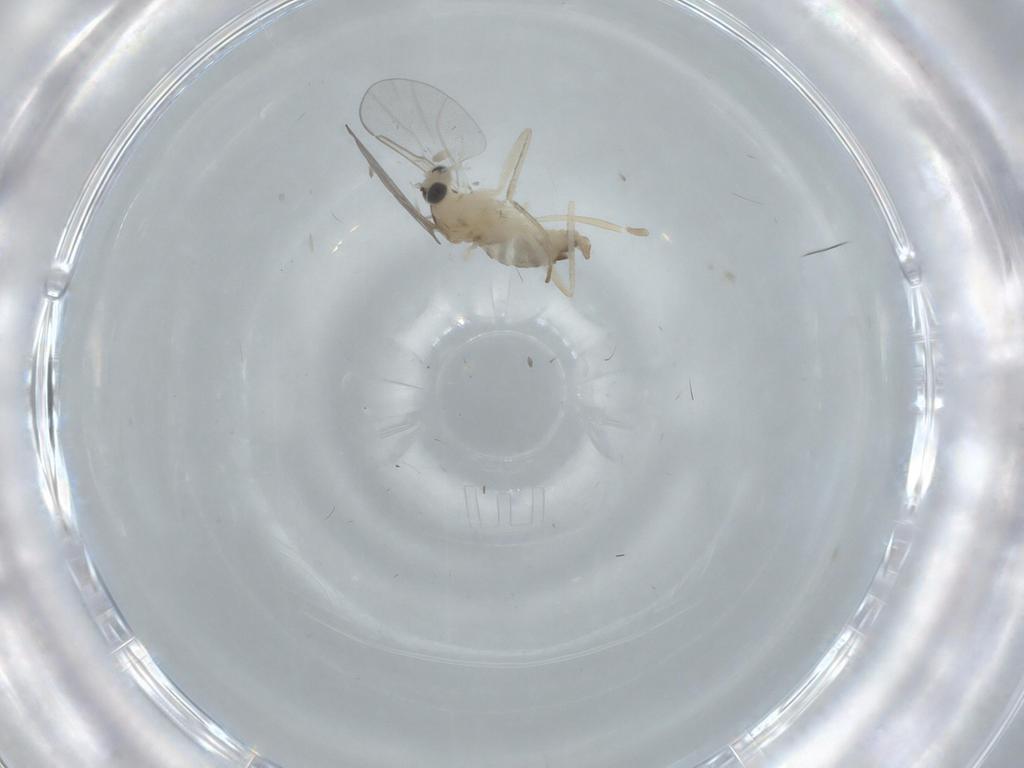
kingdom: Animalia
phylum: Arthropoda
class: Insecta
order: Diptera
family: Cecidomyiidae
